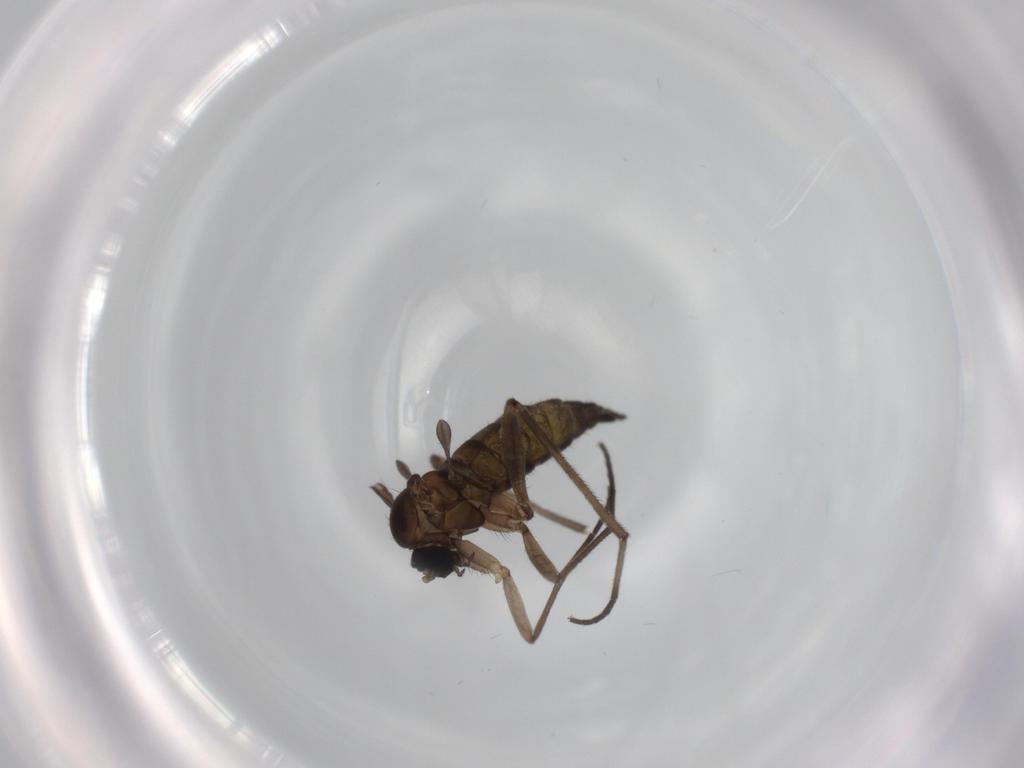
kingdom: Animalia
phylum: Arthropoda
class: Insecta
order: Diptera
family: Sciaridae
